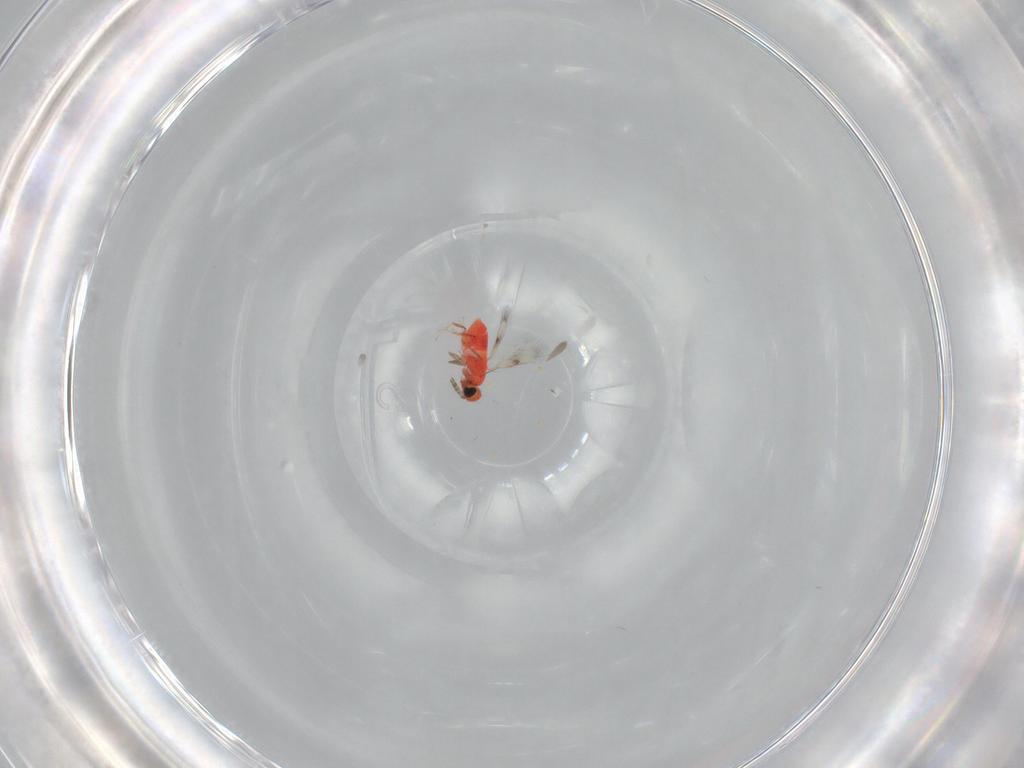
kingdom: Animalia
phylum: Arthropoda
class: Insecta
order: Hymenoptera
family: Trichogrammatidae
